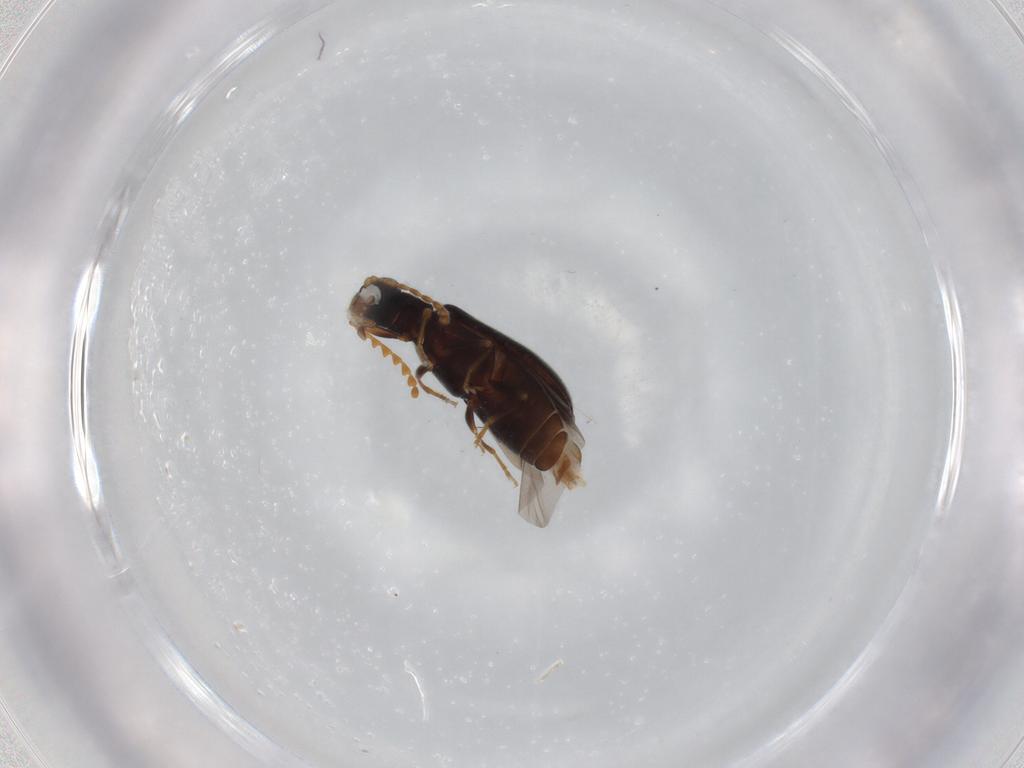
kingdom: Animalia
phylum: Arthropoda
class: Insecta
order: Coleoptera
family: Mycteridae
